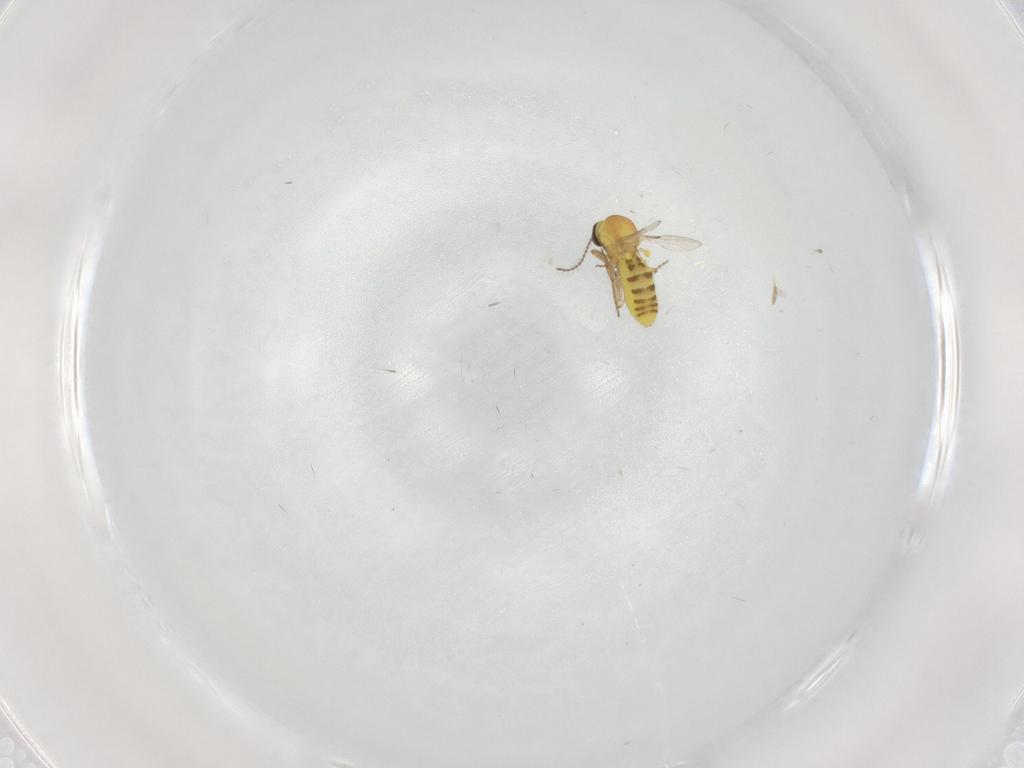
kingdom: Animalia
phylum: Arthropoda
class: Insecta
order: Diptera
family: Ceratopogonidae
